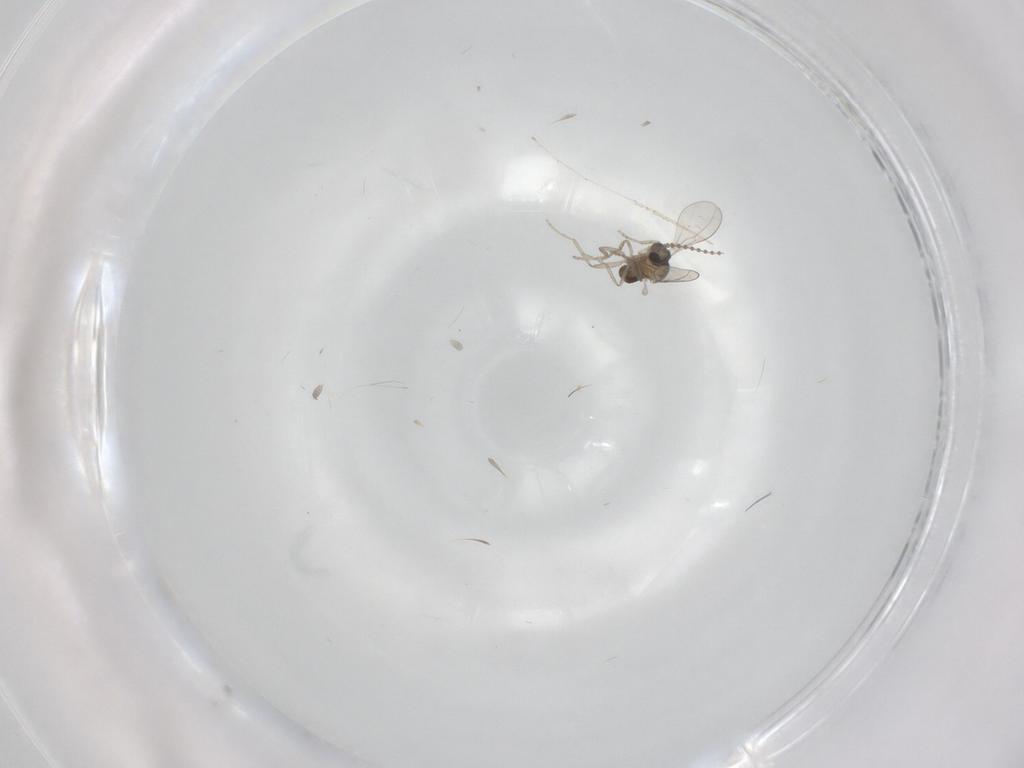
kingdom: Animalia
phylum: Arthropoda
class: Insecta
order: Diptera
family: Cecidomyiidae
